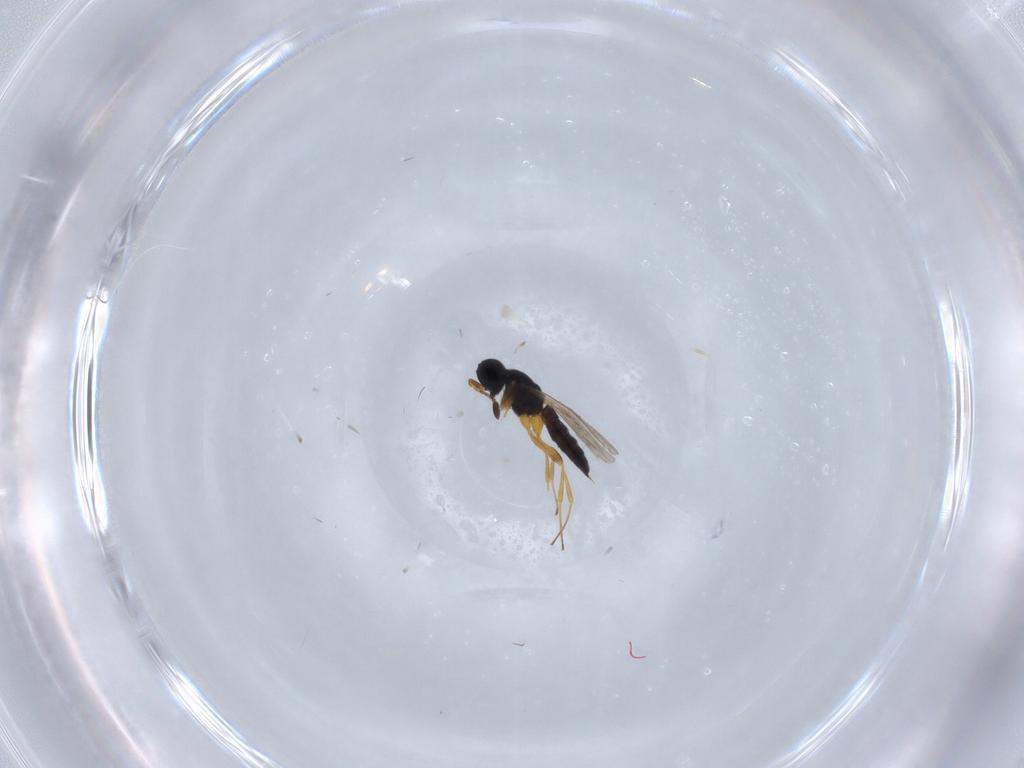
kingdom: Animalia
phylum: Arthropoda
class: Insecta
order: Hymenoptera
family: Scelionidae
